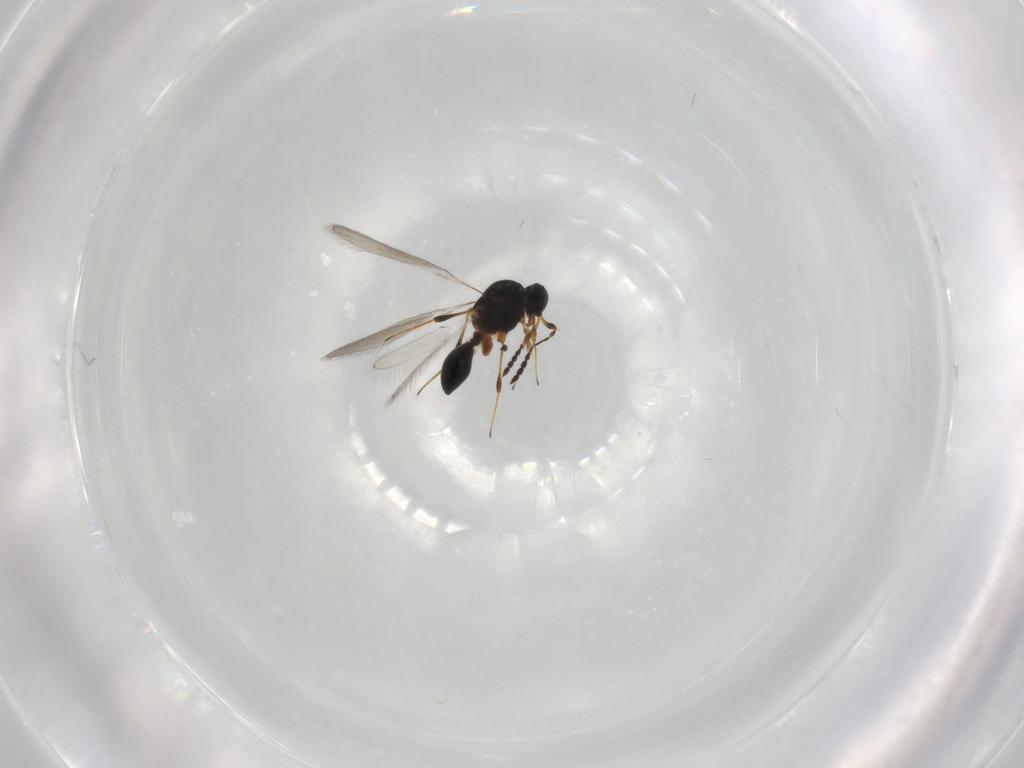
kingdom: Animalia
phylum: Arthropoda
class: Insecta
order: Hymenoptera
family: Platygastridae
